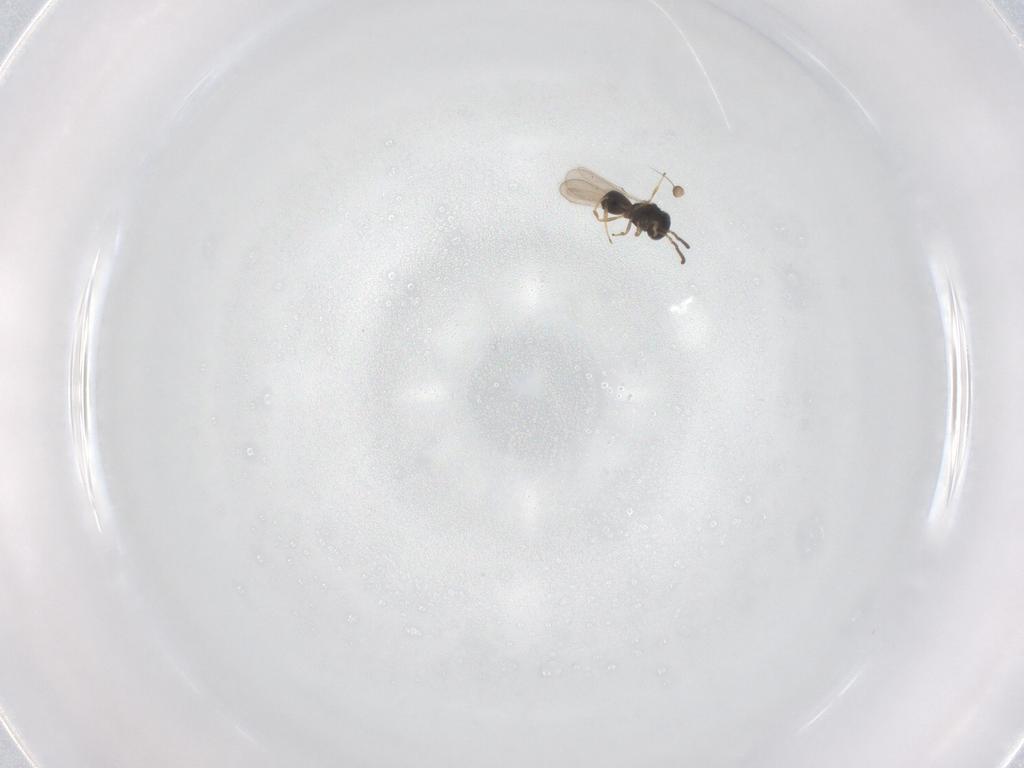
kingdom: Animalia
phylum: Arthropoda
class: Insecta
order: Hymenoptera
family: Scelionidae
